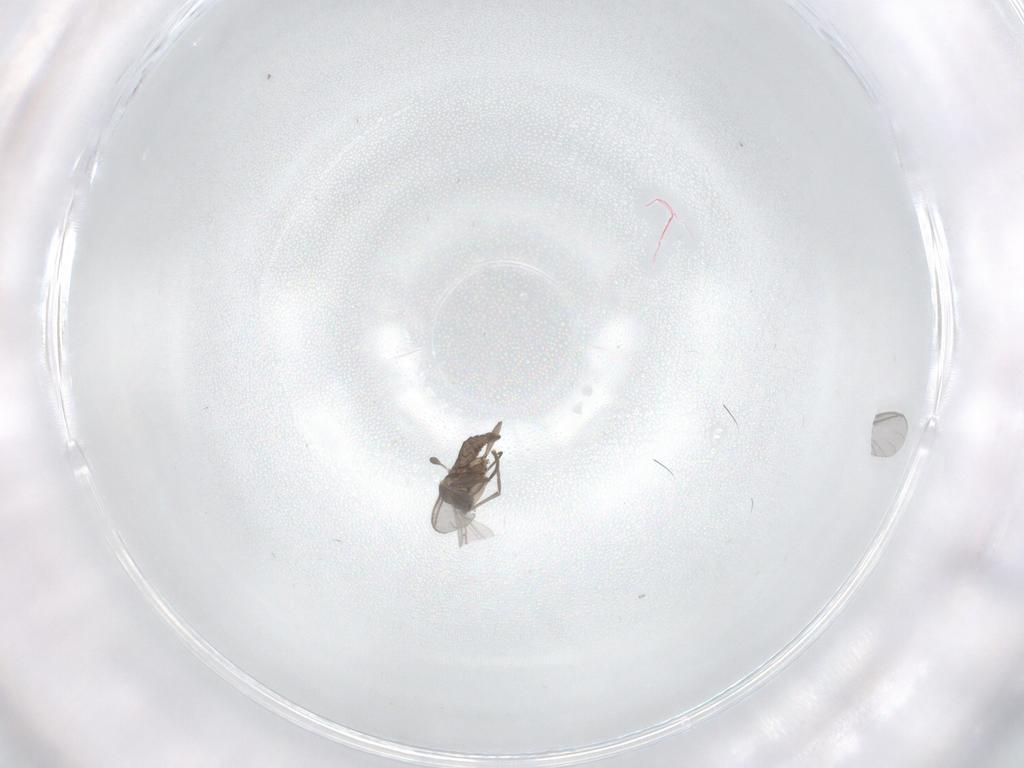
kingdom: Animalia
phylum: Arthropoda
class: Insecta
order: Diptera
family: Sciaridae
